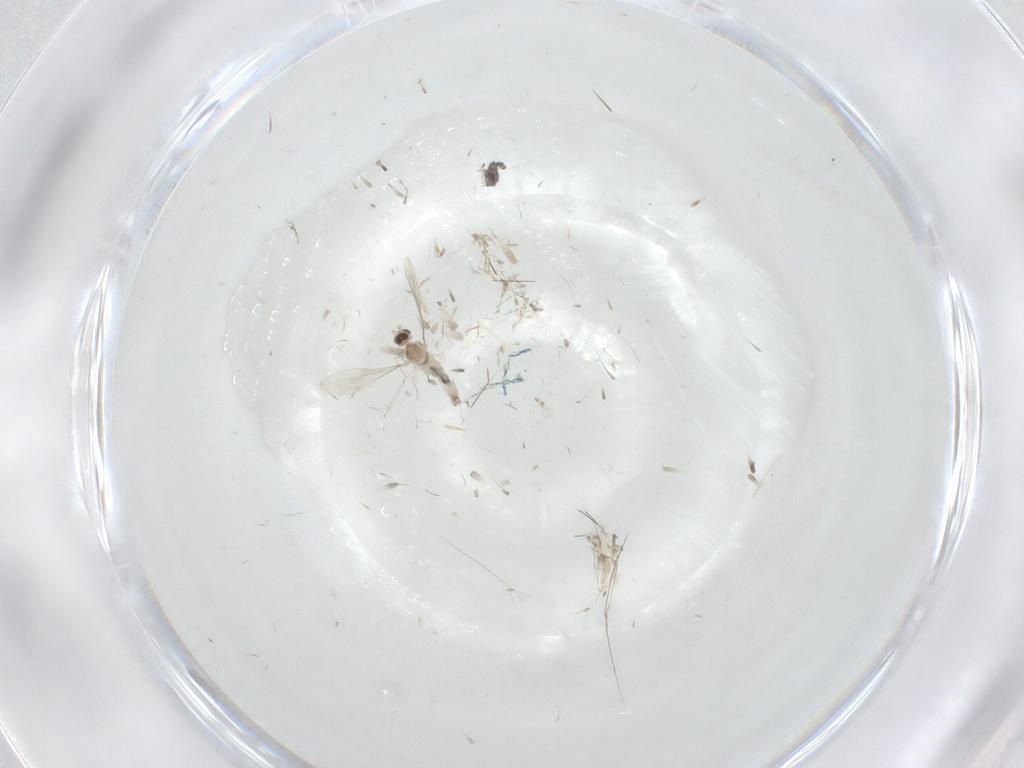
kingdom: Animalia
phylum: Arthropoda
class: Insecta
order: Diptera
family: Cecidomyiidae
